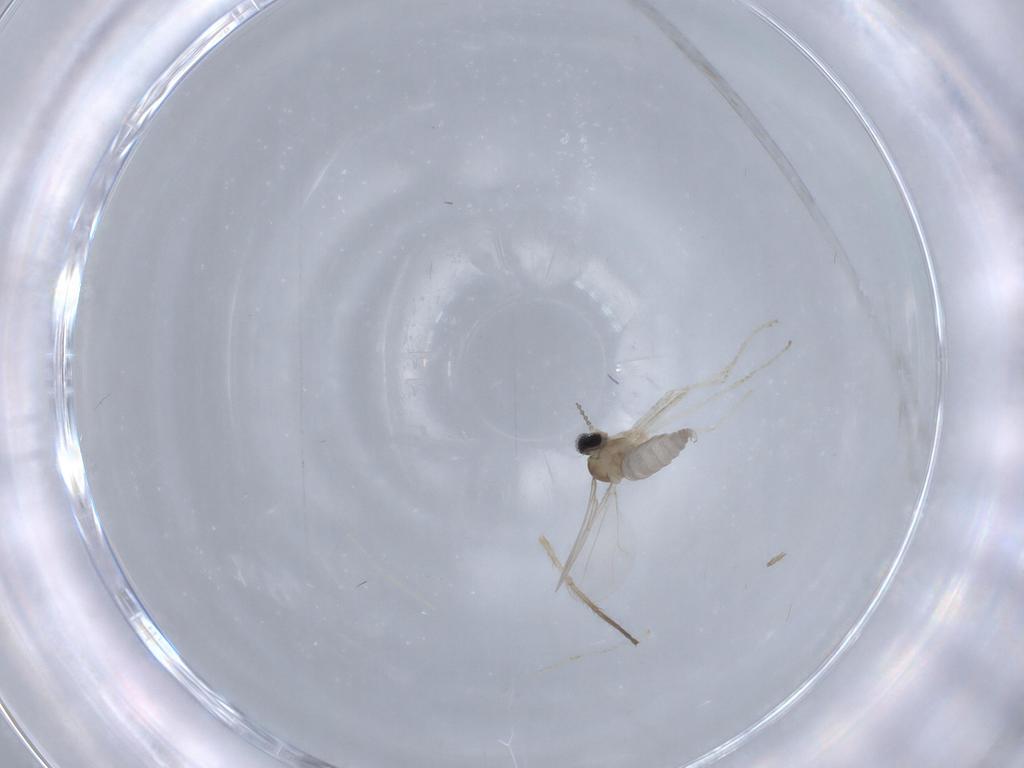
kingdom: Animalia
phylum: Arthropoda
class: Insecta
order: Diptera
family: Cecidomyiidae
